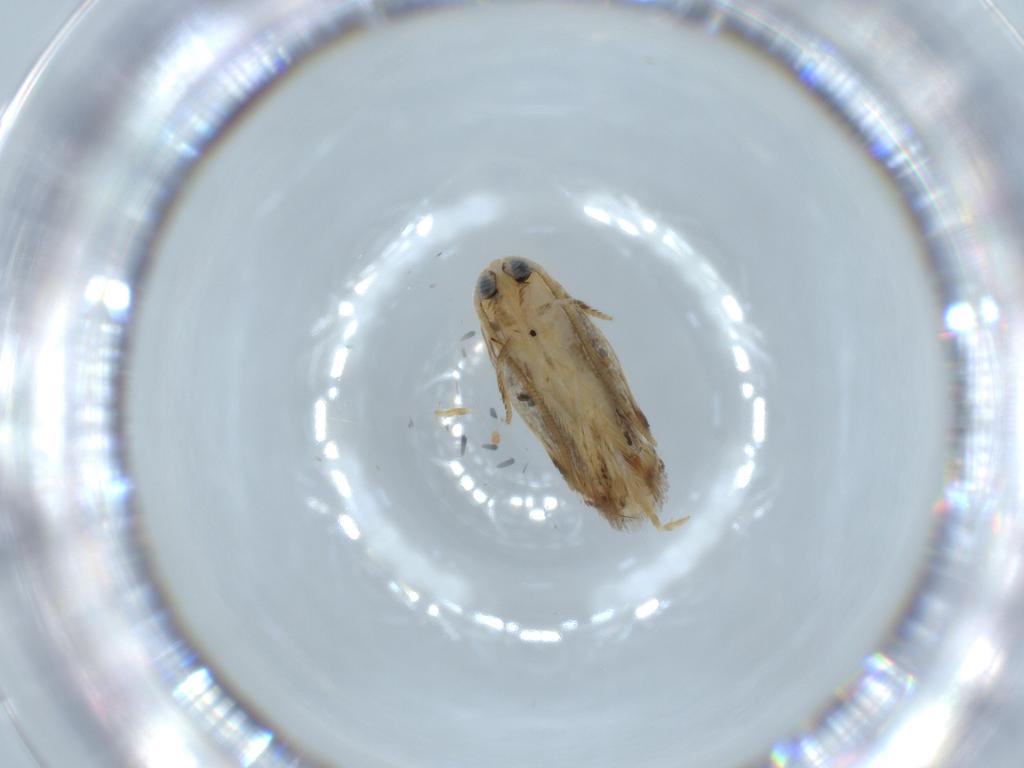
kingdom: Animalia
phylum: Arthropoda
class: Insecta
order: Lepidoptera
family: Opostegidae
